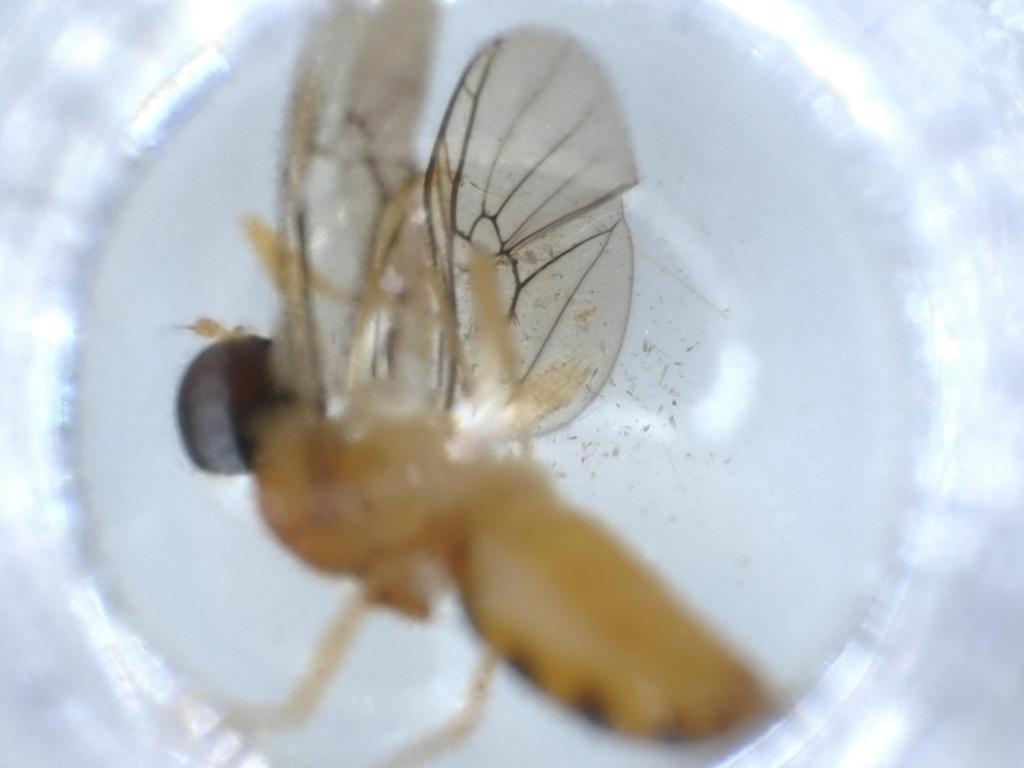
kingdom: Animalia
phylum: Arthropoda
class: Insecta
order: Diptera
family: Chironomidae
